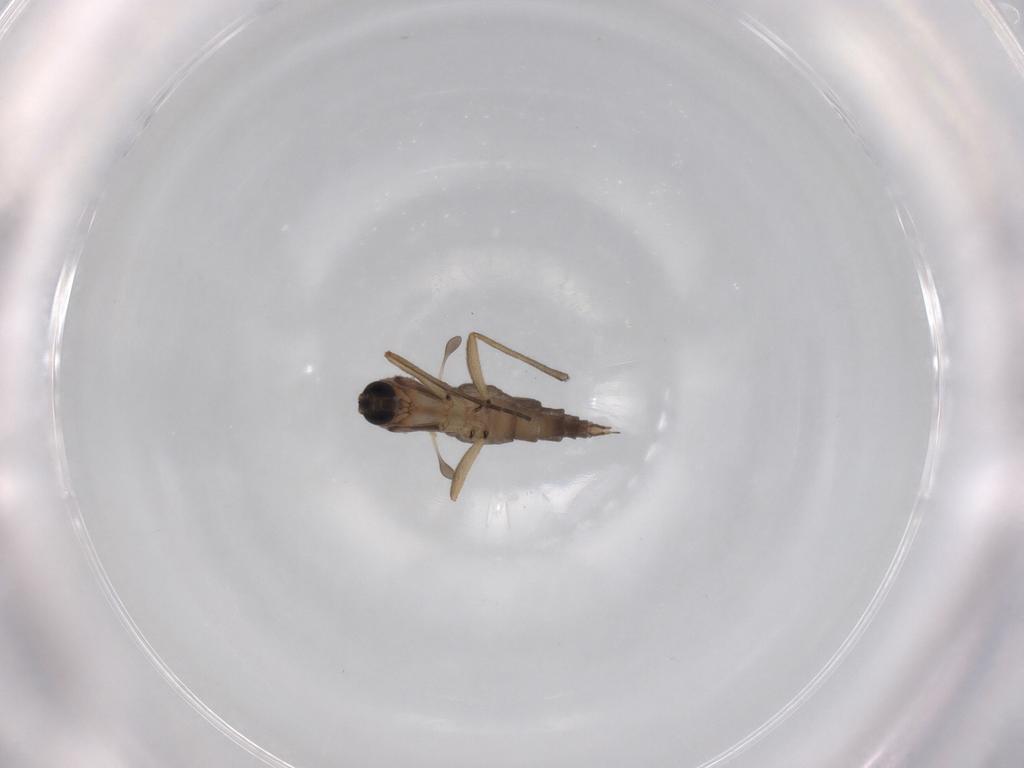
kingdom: Animalia
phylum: Arthropoda
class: Insecta
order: Diptera
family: Sciaridae
